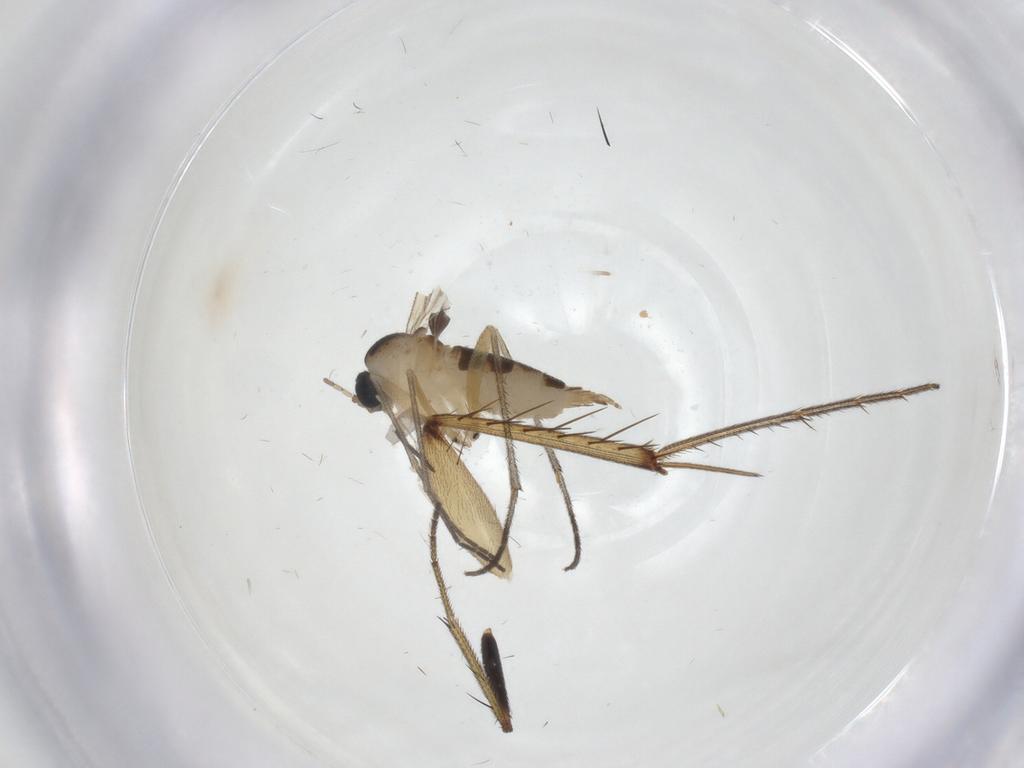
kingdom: Animalia
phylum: Arthropoda
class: Insecta
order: Diptera
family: Sciaridae
